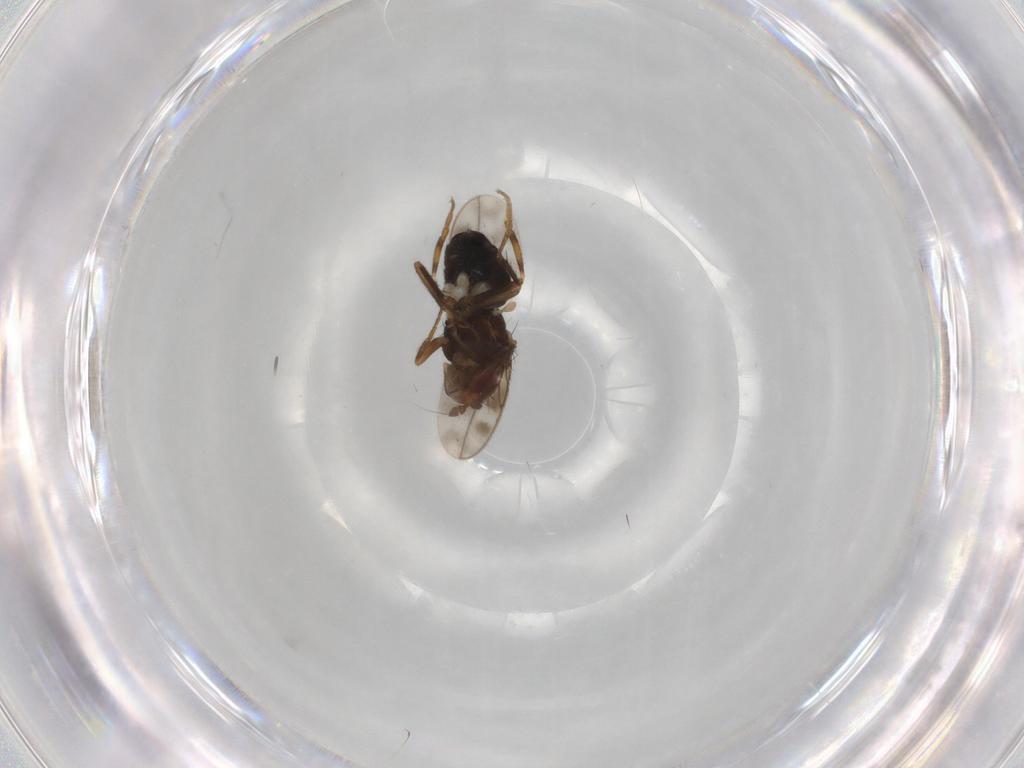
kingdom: Animalia
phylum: Arthropoda
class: Insecta
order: Diptera
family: Sphaeroceridae
